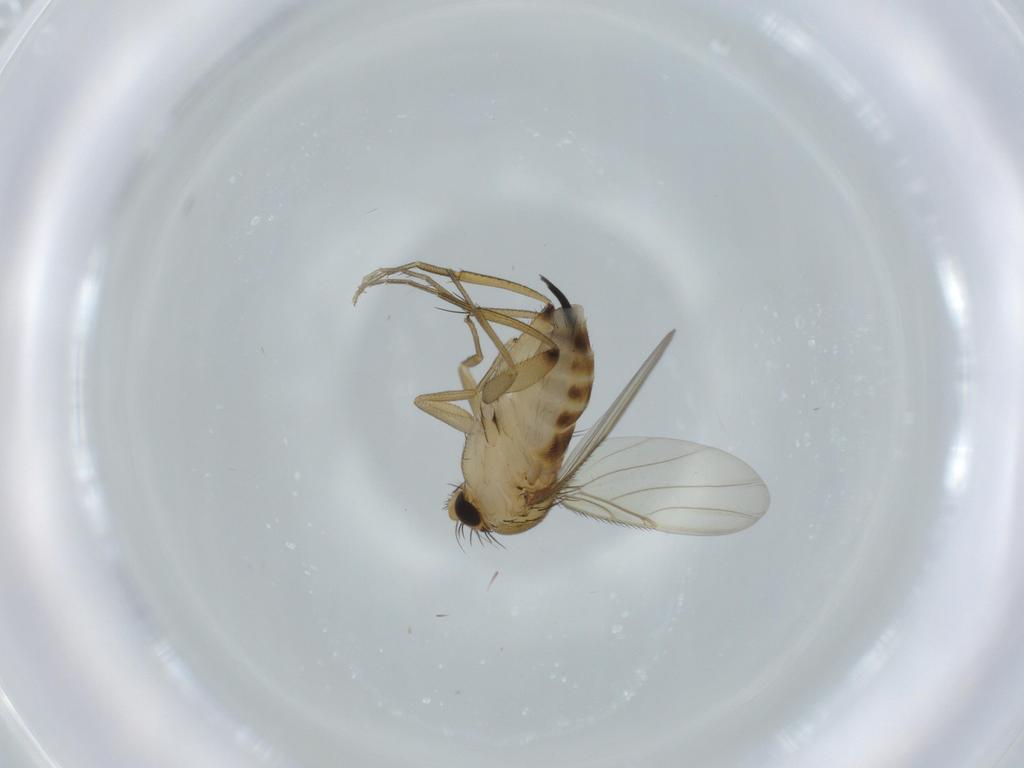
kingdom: Animalia
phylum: Arthropoda
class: Insecta
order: Diptera
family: Phoridae
